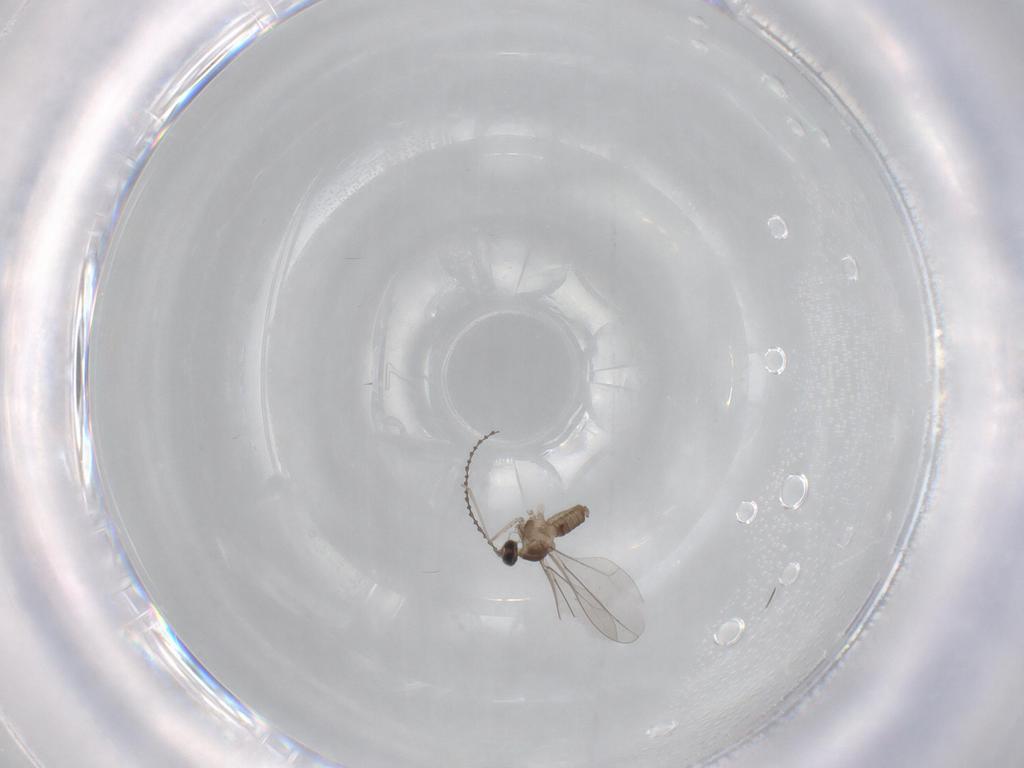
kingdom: Animalia
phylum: Arthropoda
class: Insecta
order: Diptera
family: Cecidomyiidae
